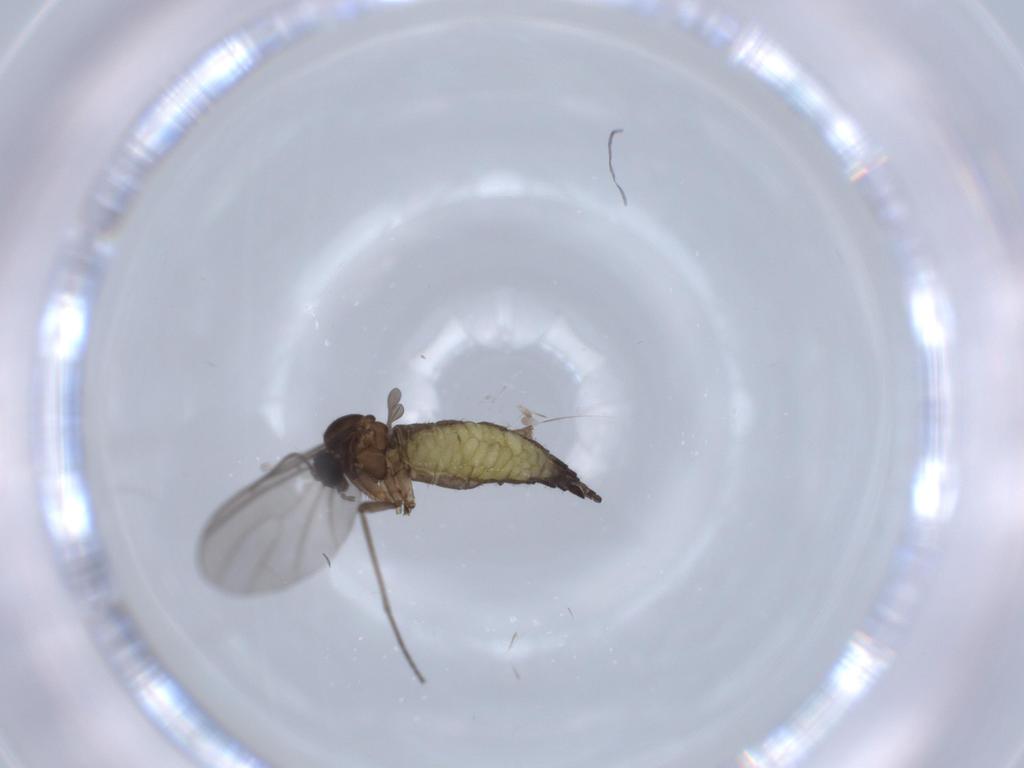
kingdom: Animalia
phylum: Arthropoda
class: Insecta
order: Diptera
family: Sciaridae
